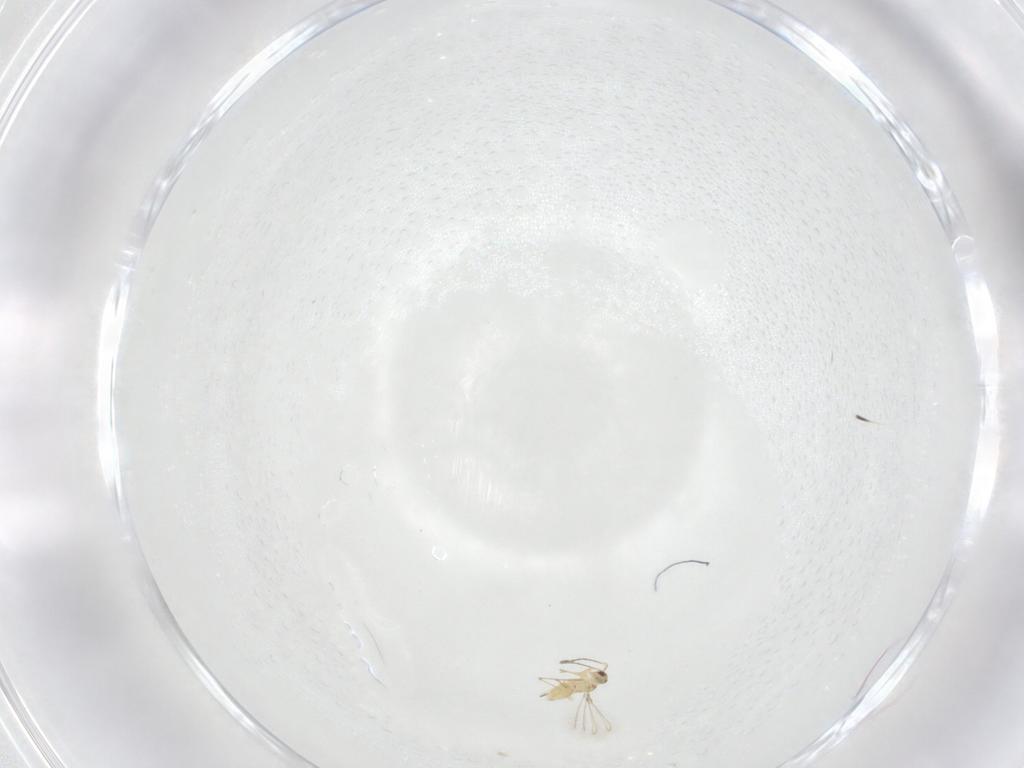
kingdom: Animalia
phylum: Arthropoda
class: Insecta
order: Hymenoptera
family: Mymaridae
